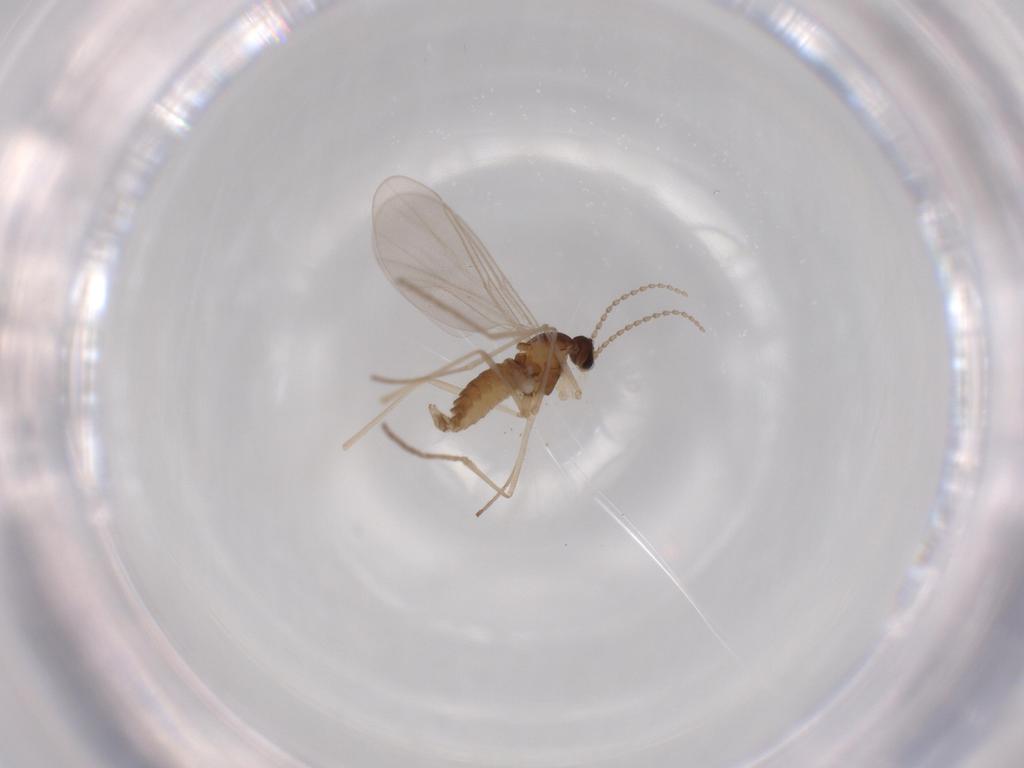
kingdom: Animalia
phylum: Arthropoda
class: Insecta
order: Diptera
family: Cecidomyiidae
